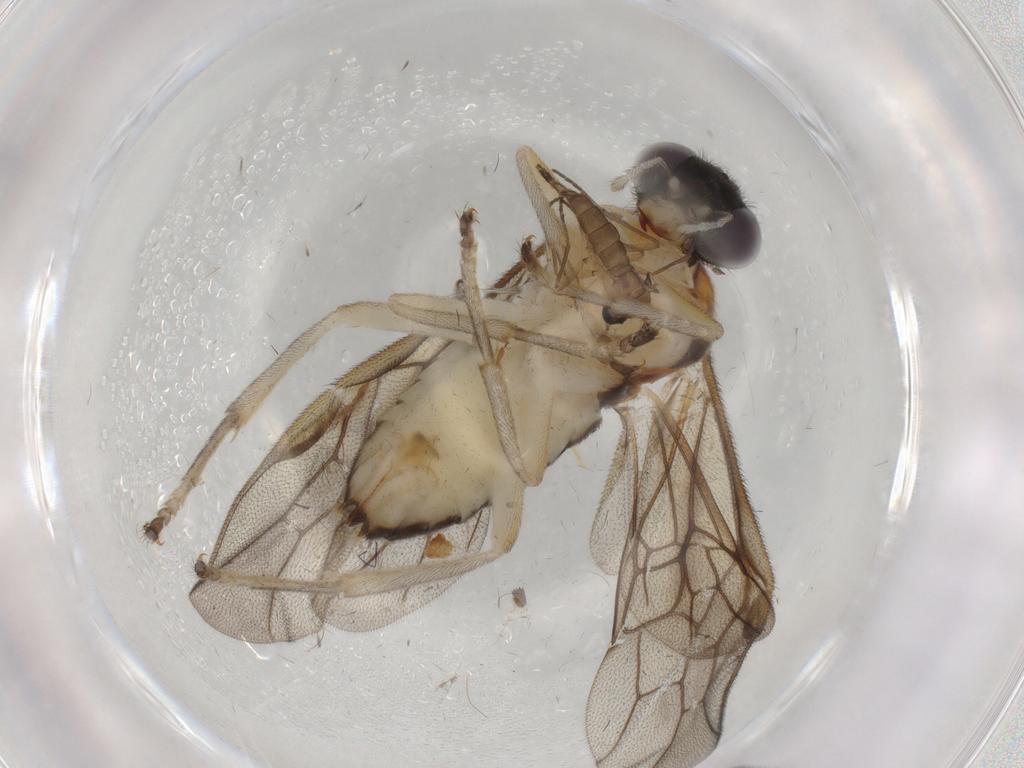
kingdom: Animalia
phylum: Arthropoda
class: Insecta
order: Diptera
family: Sciaridae
